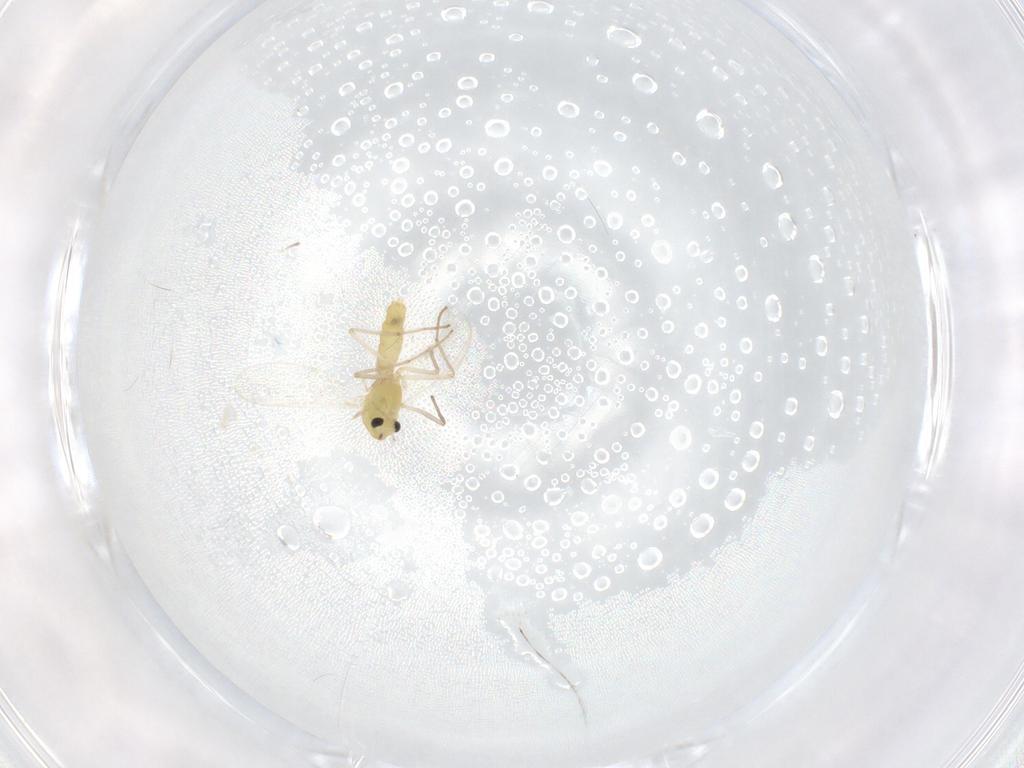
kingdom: Animalia
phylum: Arthropoda
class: Insecta
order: Diptera
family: Chironomidae
